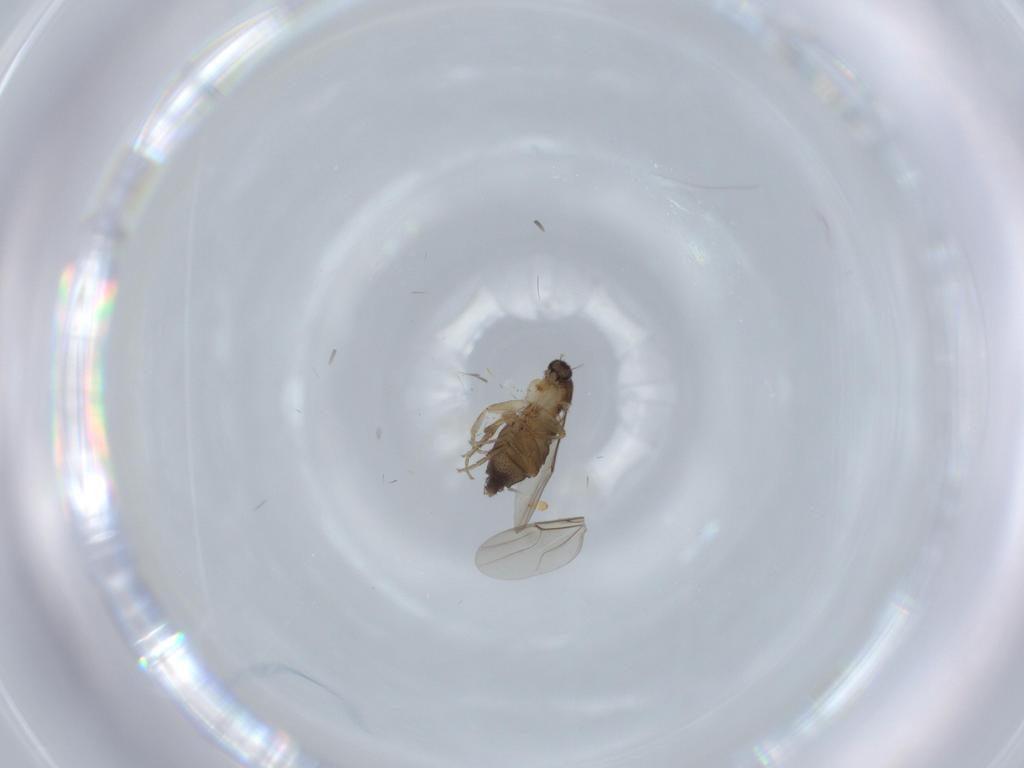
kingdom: Animalia
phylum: Arthropoda
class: Insecta
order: Diptera
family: Phoridae
